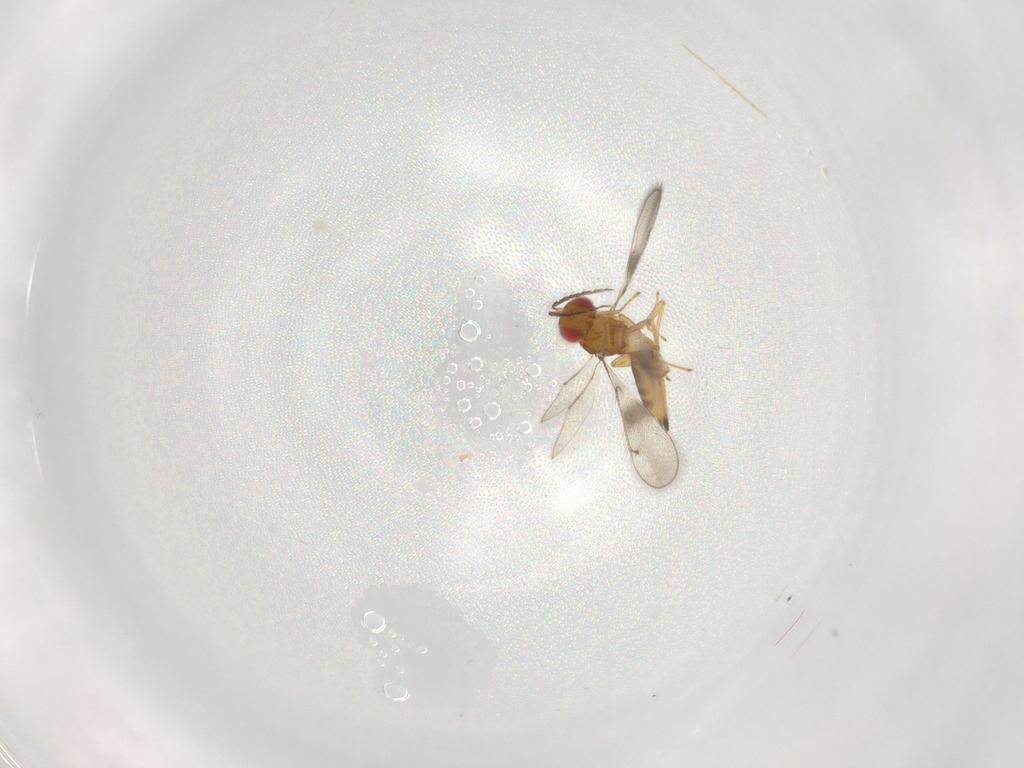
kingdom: Animalia
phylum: Arthropoda
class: Insecta
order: Hymenoptera
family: Eulophidae
